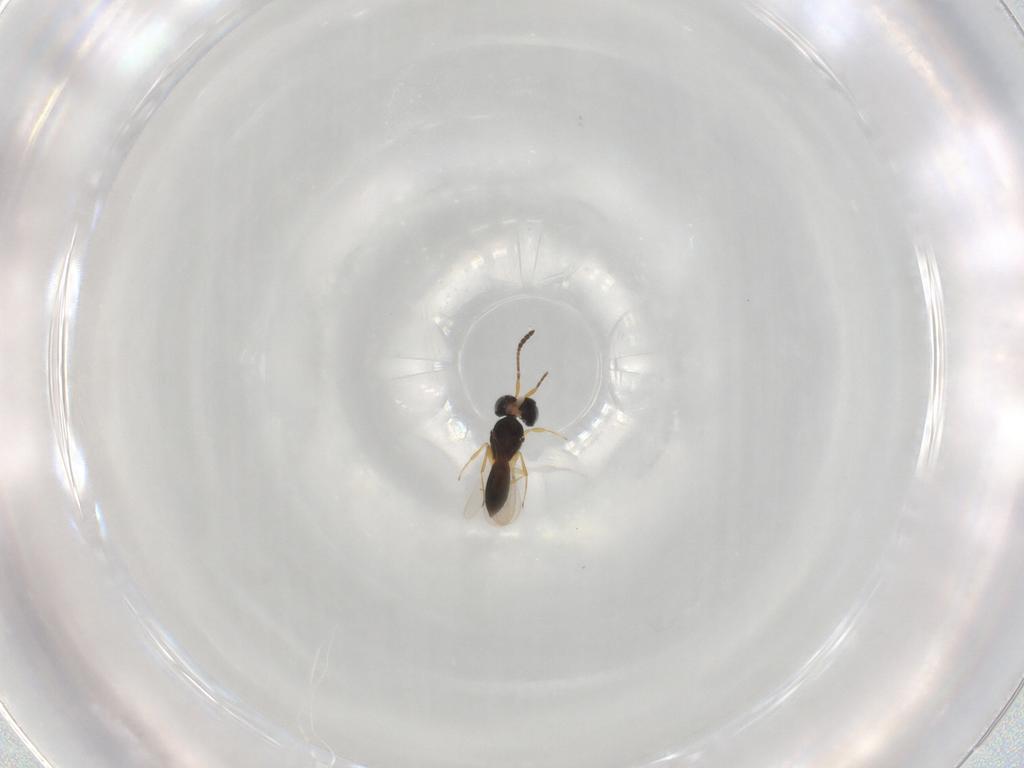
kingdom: Animalia
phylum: Arthropoda
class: Insecta
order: Hymenoptera
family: Scelionidae
